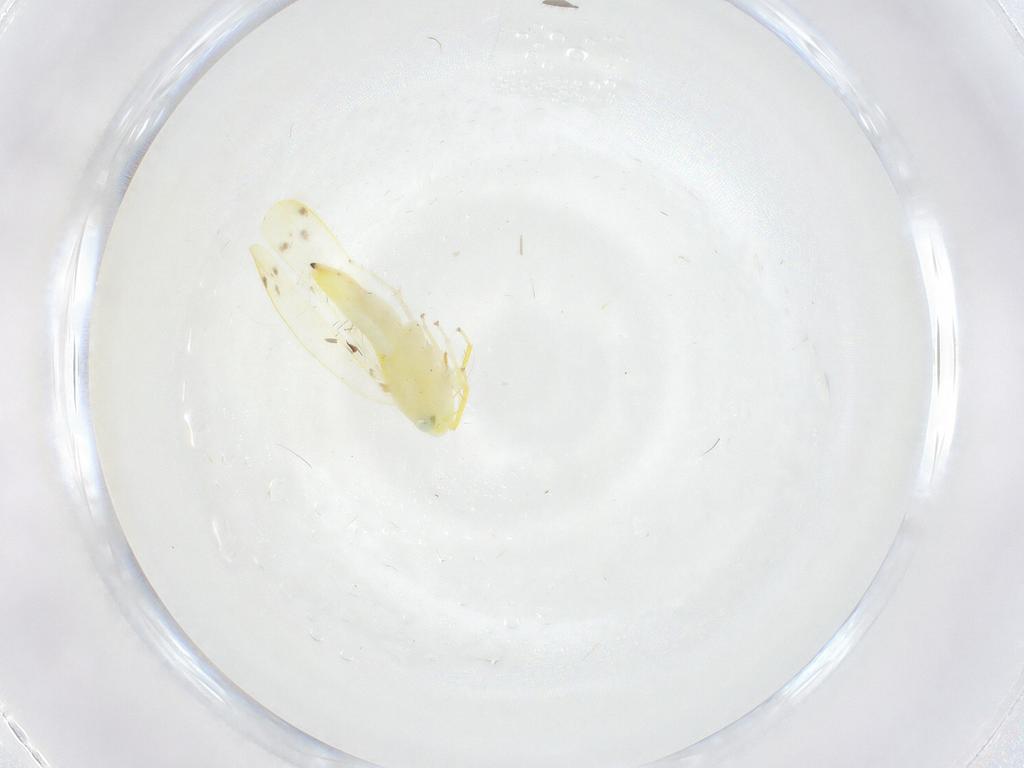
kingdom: Animalia
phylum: Arthropoda
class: Insecta
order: Hemiptera
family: Cicadellidae
